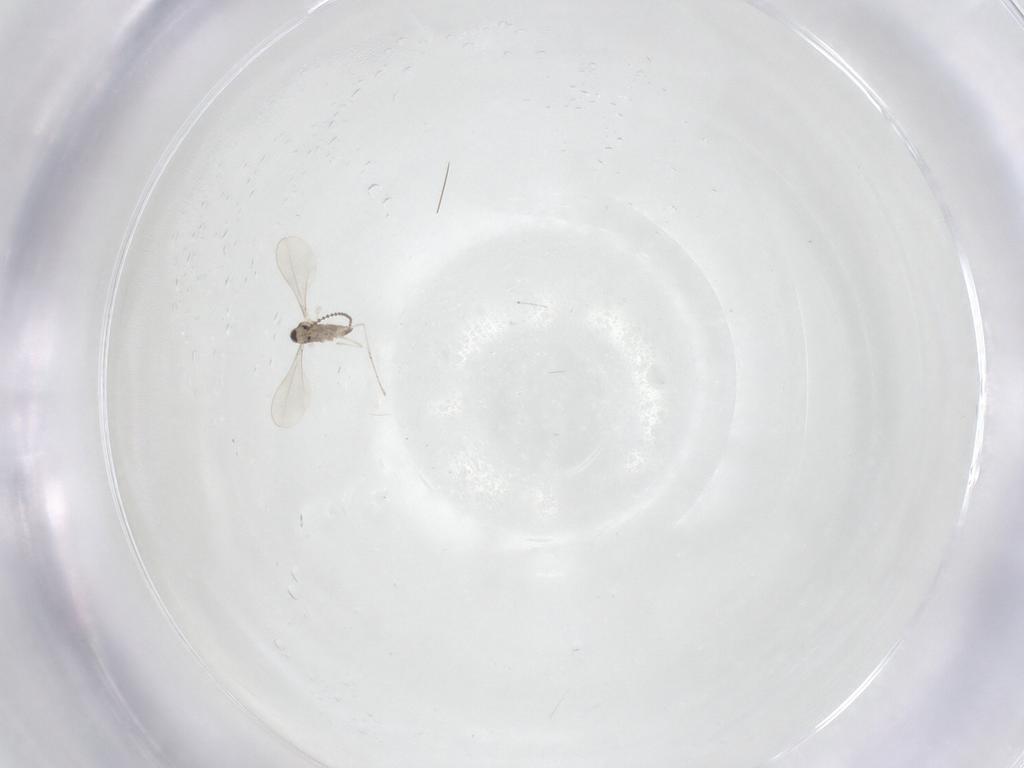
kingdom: Animalia
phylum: Arthropoda
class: Insecta
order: Diptera
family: Cecidomyiidae
